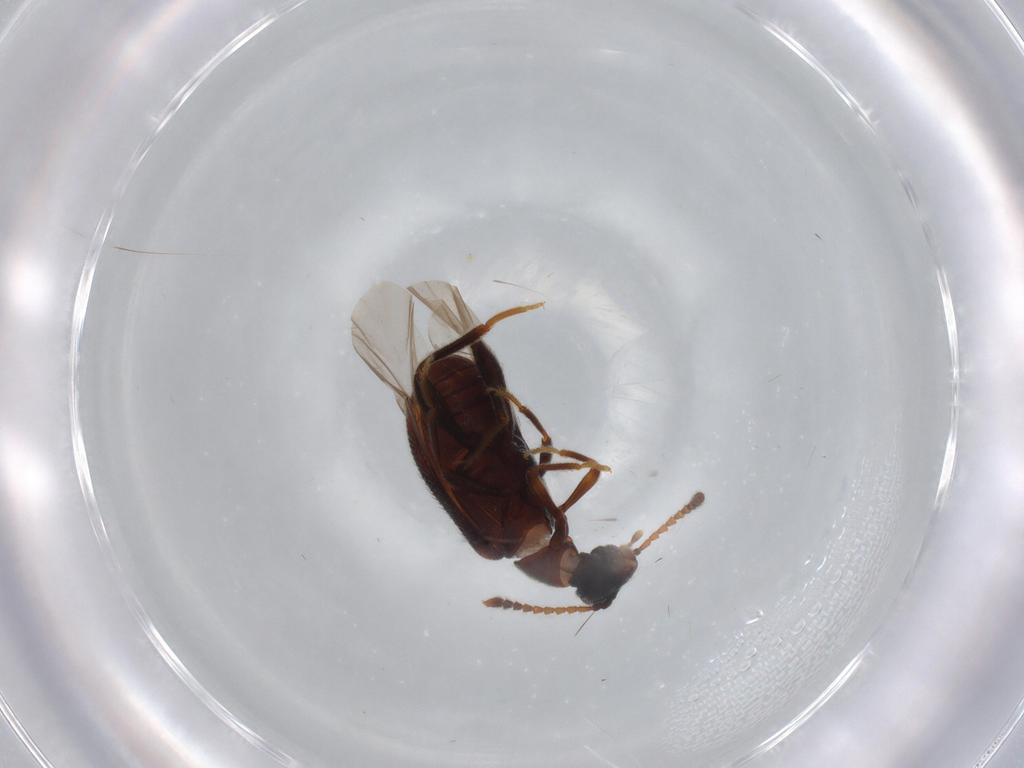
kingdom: Animalia
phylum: Arthropoda
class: Insecta
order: Coleoptera
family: Aderidae
